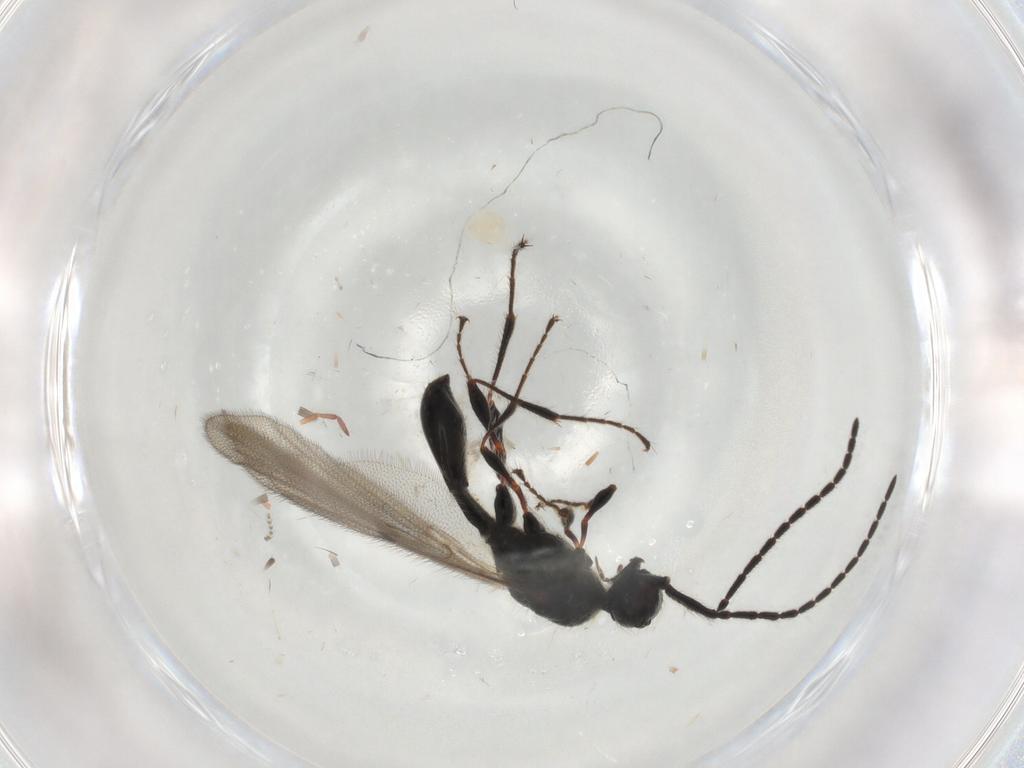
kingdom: Animalia
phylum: Arthropoda
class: Insecta
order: Hymenoptera
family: Diapriidae
